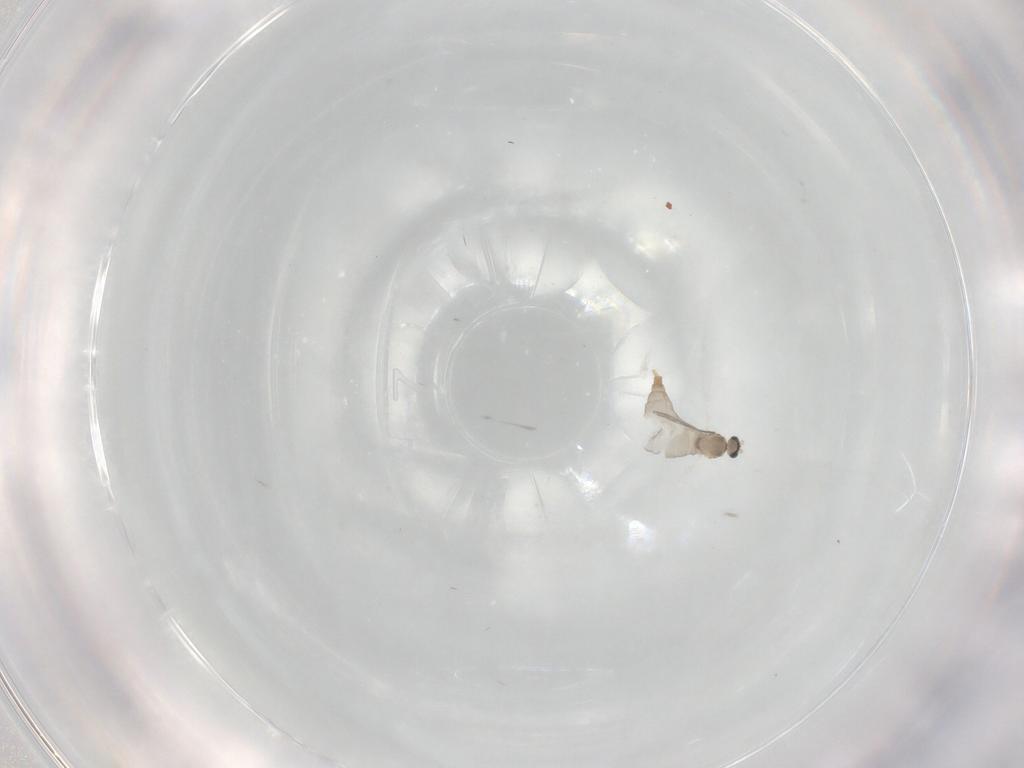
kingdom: Animalia
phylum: Arthropoda
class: Insecta
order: Diptera
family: Cecidomyiidae
